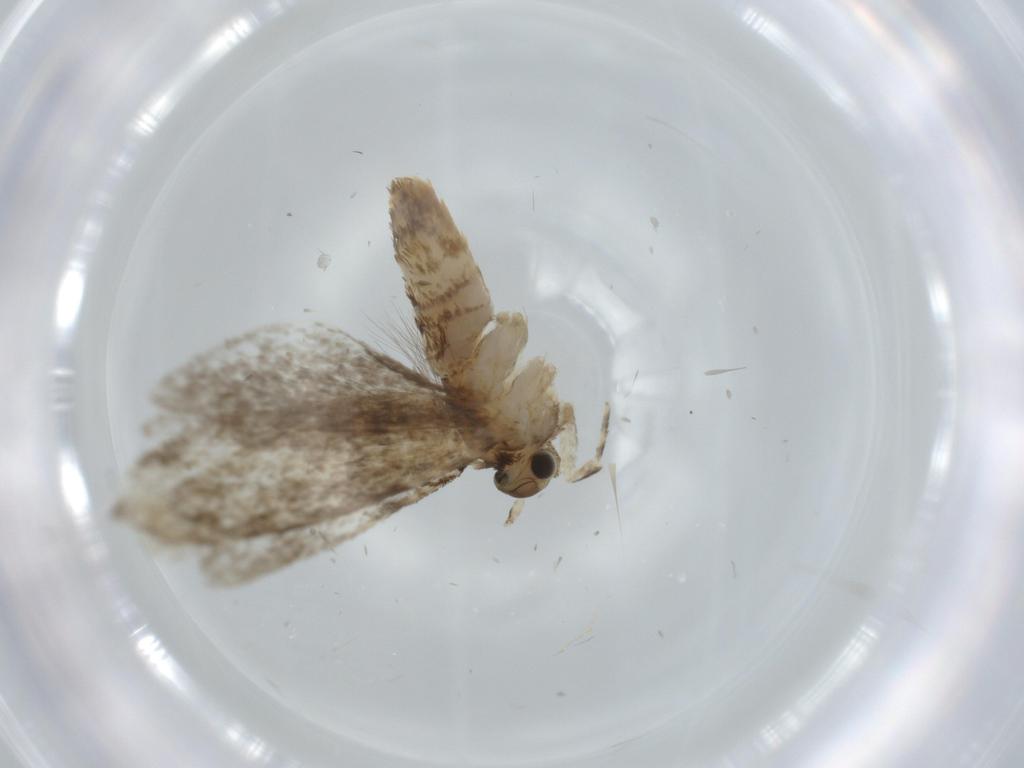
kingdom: Animalia
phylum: Arthropoda
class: Insecta
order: Lepidoptera
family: Tineidae
